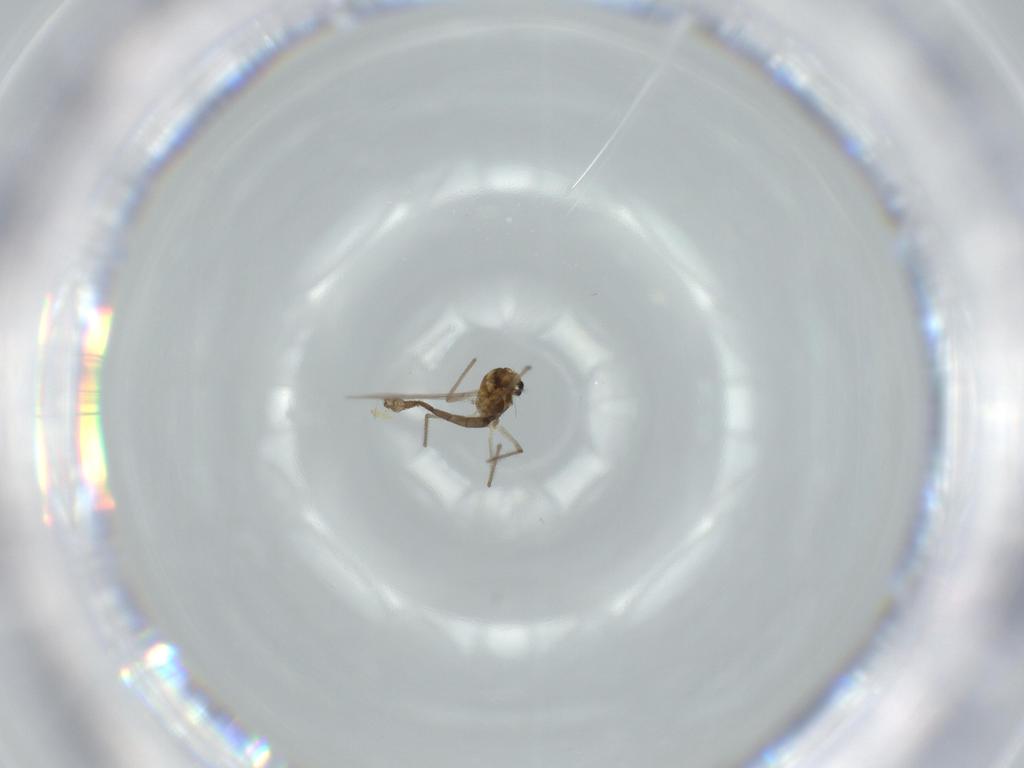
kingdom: Animalia
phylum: Arthropoda
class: Insecta
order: Diptera
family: Cecidomyiidae
